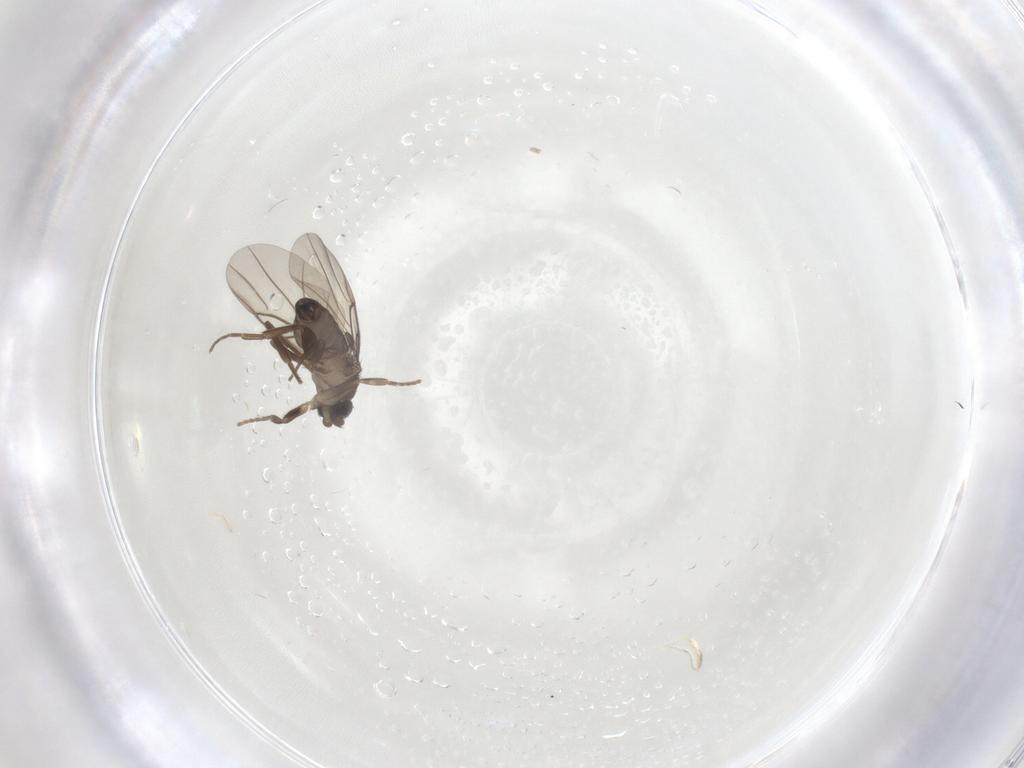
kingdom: Animalia
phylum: Arthropoda
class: Insecta
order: Diptera
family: Phoridae
